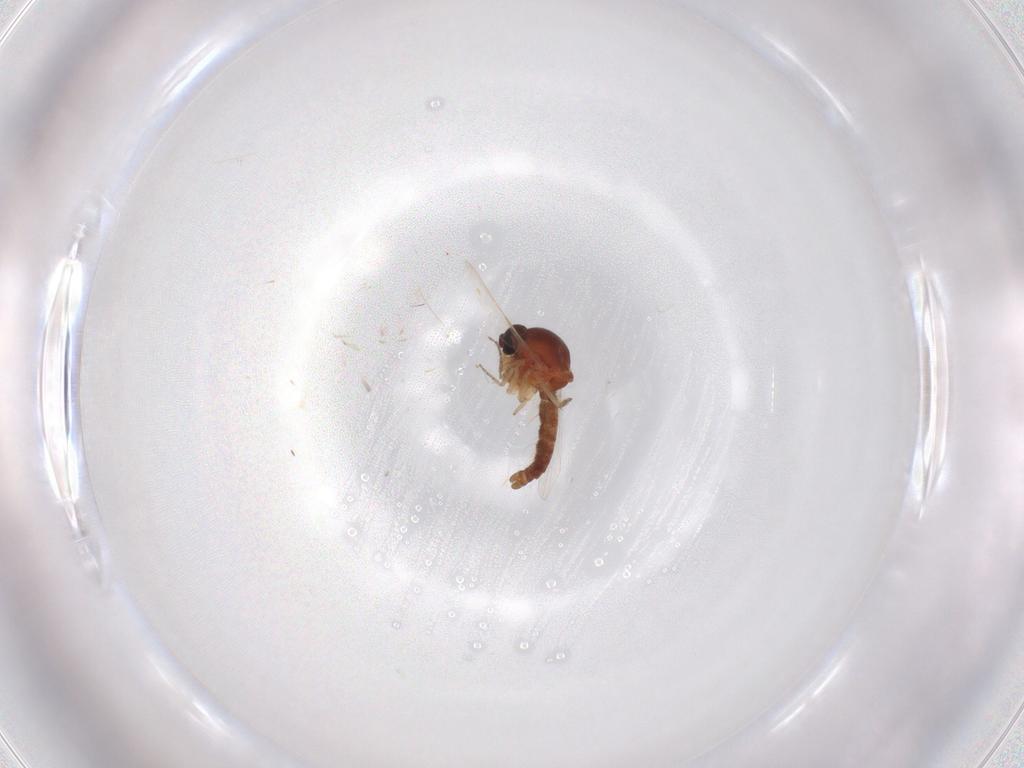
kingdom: Animalia
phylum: Arthropoda
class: Insecta
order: Diptera
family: Ceratopogonidae
